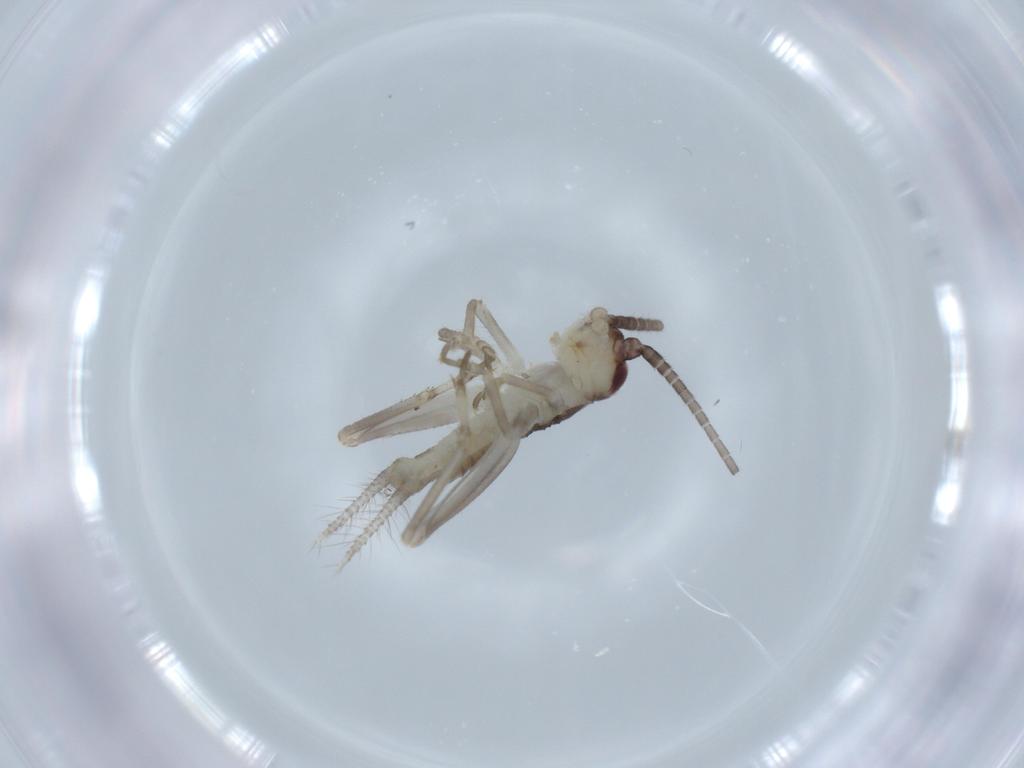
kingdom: Animalia
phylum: Arthropoda
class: Insecta
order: Orthoptera
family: Gryllidae
